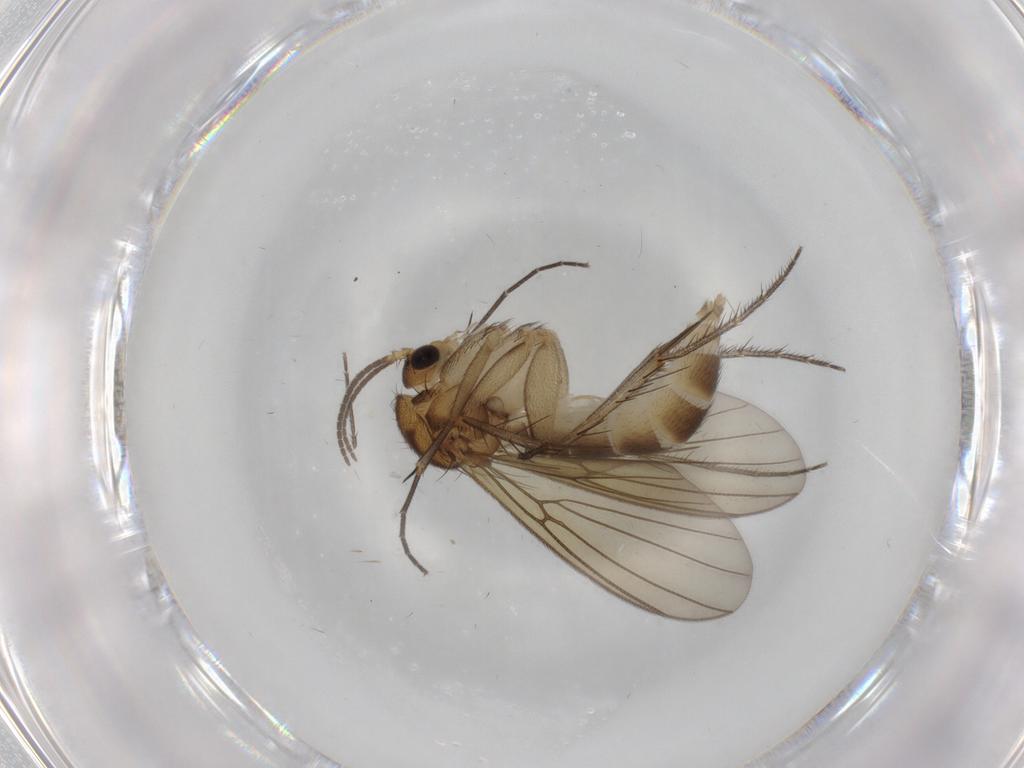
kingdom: Animalia
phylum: Arthropoda
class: Insecta
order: Diptera
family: Mycetophilidae
